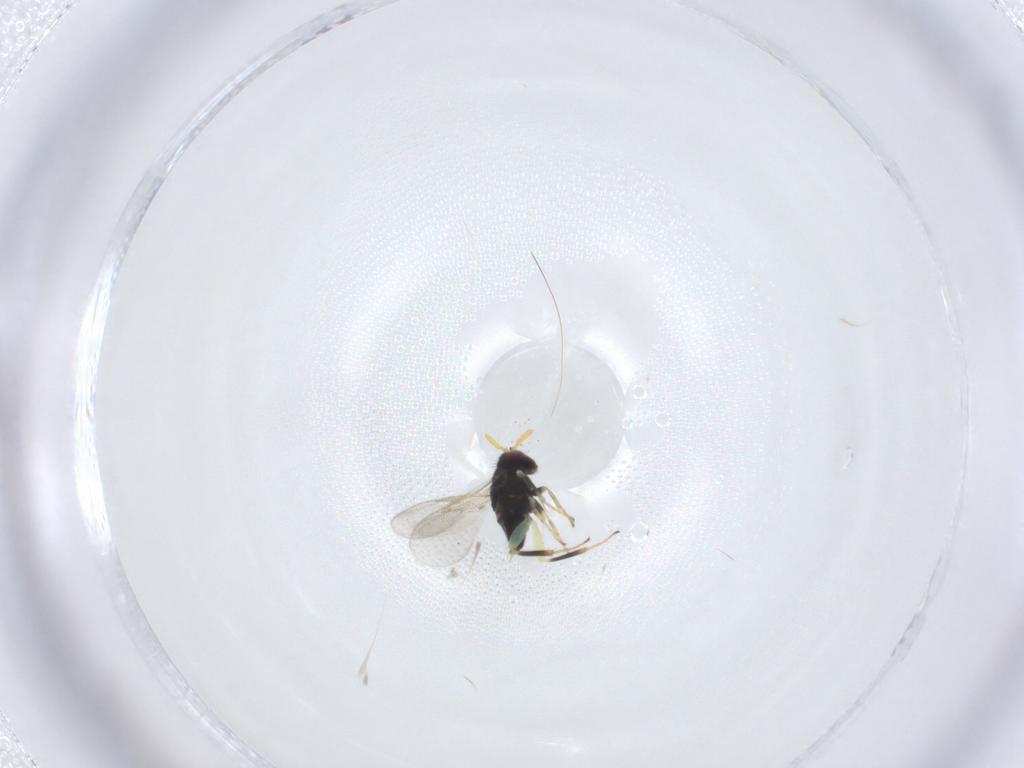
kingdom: Animalia
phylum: Arthropoda
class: Insecta
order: Hymenoptera
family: Aphelinidae
